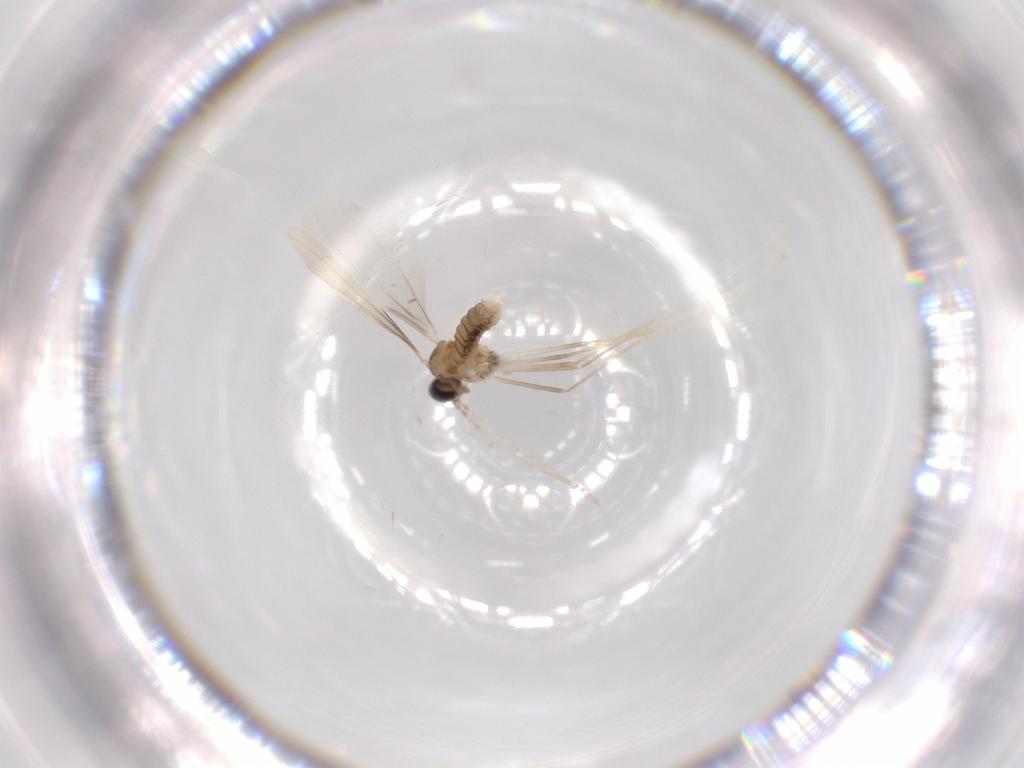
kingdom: Animalia
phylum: Arthropoda
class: Insecta
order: Diptera
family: Cecidomyiidae
